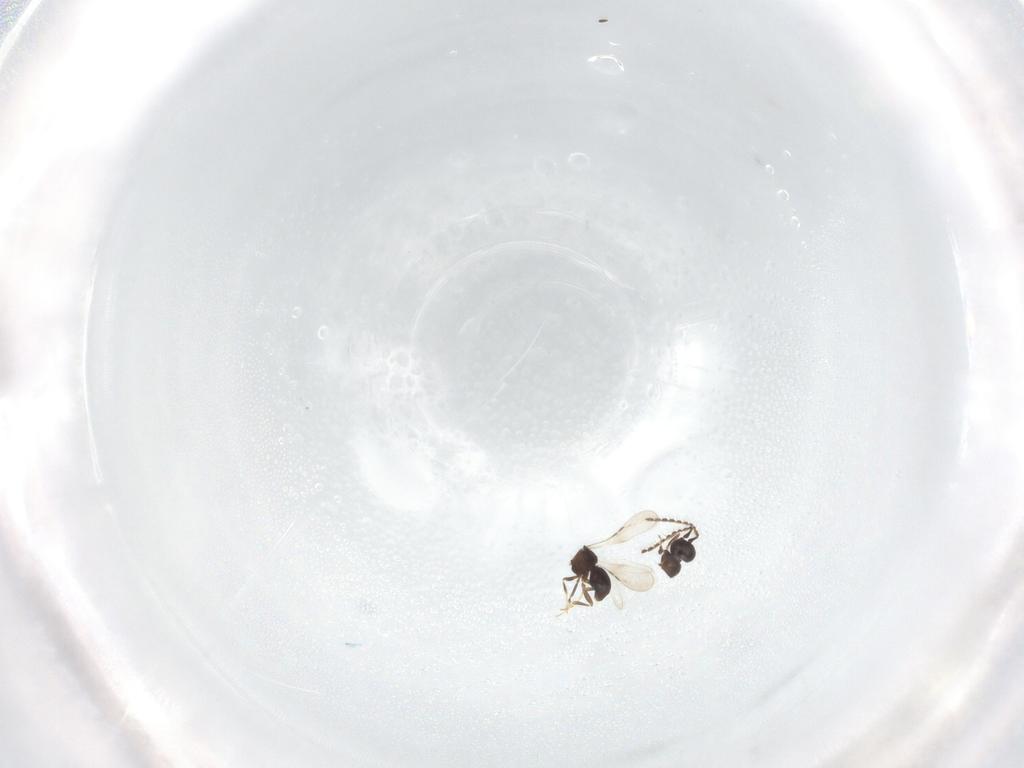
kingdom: Animalia
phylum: Arthropoda
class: Insecta
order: Hymenoptera
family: Ceraphronidae
